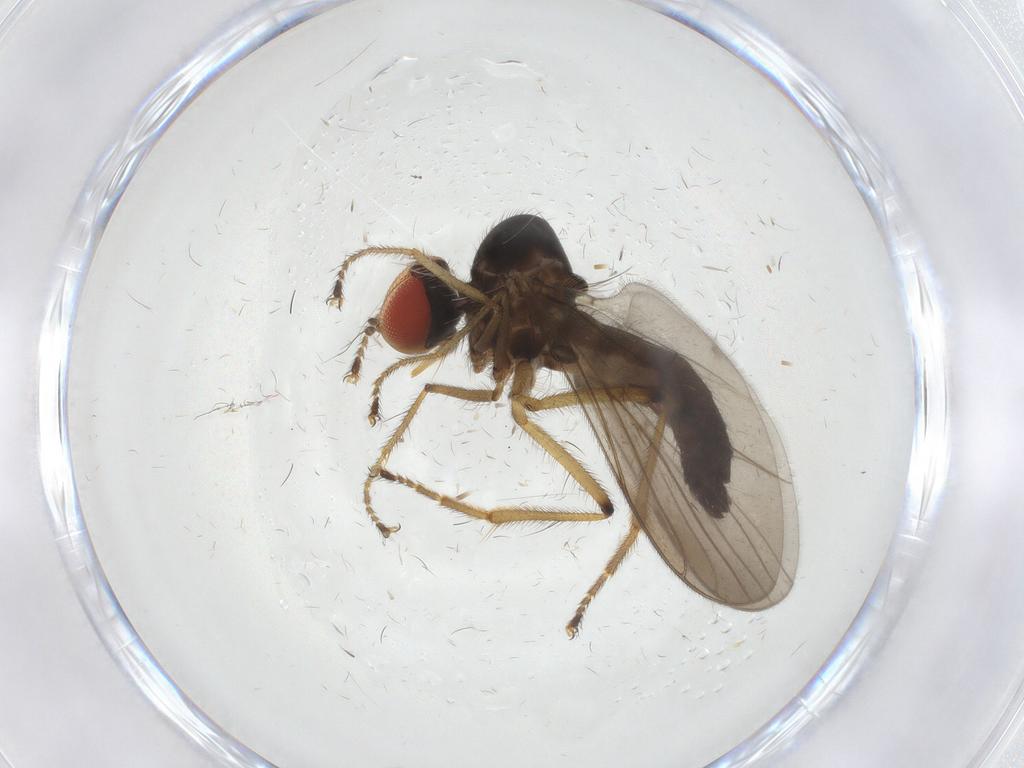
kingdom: Animalia
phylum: Arthropoda
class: Insecta
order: Diptera
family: Hybotidae
